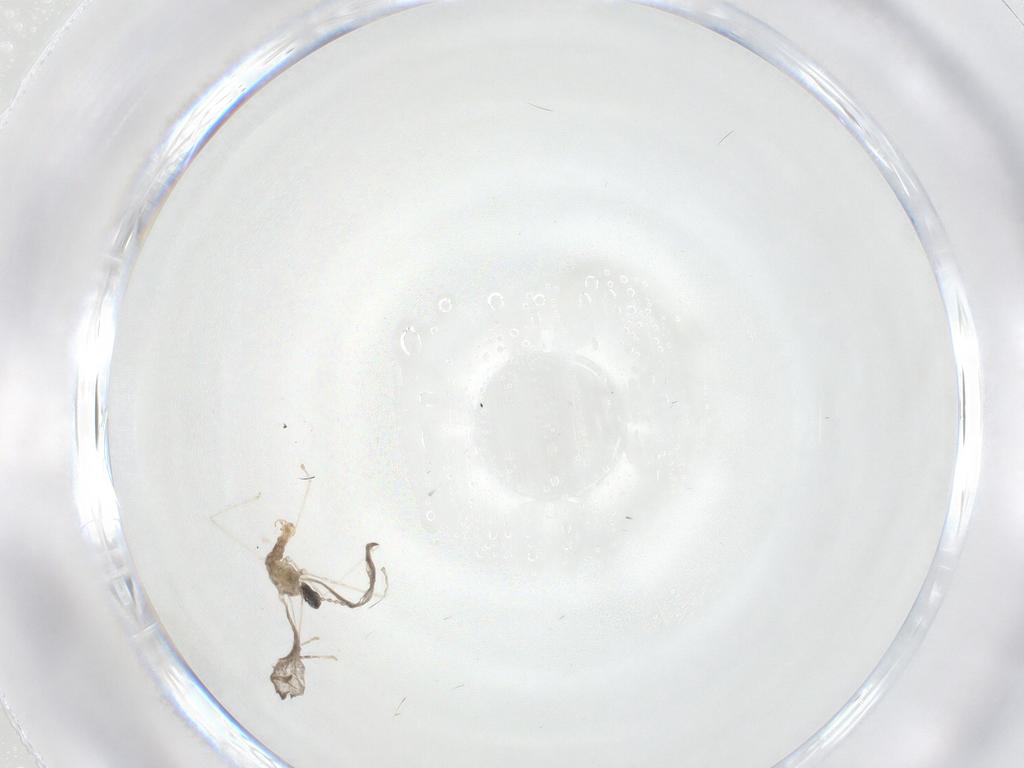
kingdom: Animalia
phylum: Arthropoda
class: Insecta
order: Diptera
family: Cecidomyiidae
